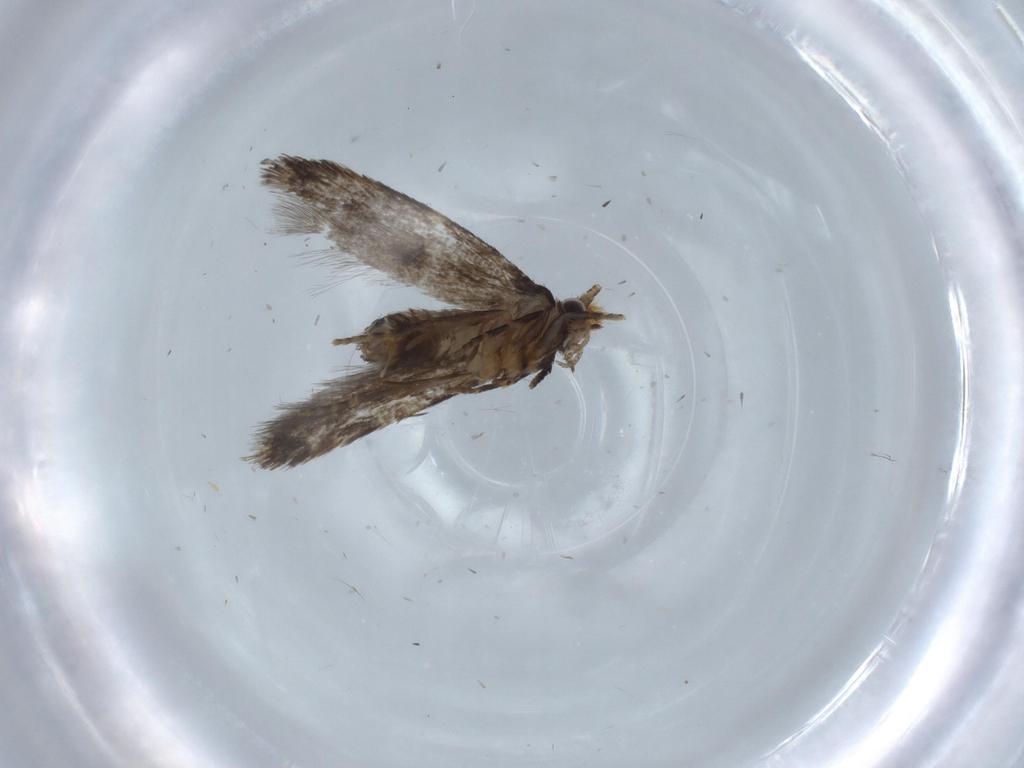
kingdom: Animalia
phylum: Arthropoda
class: Insecta
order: Lepidoptera
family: Tineidae
